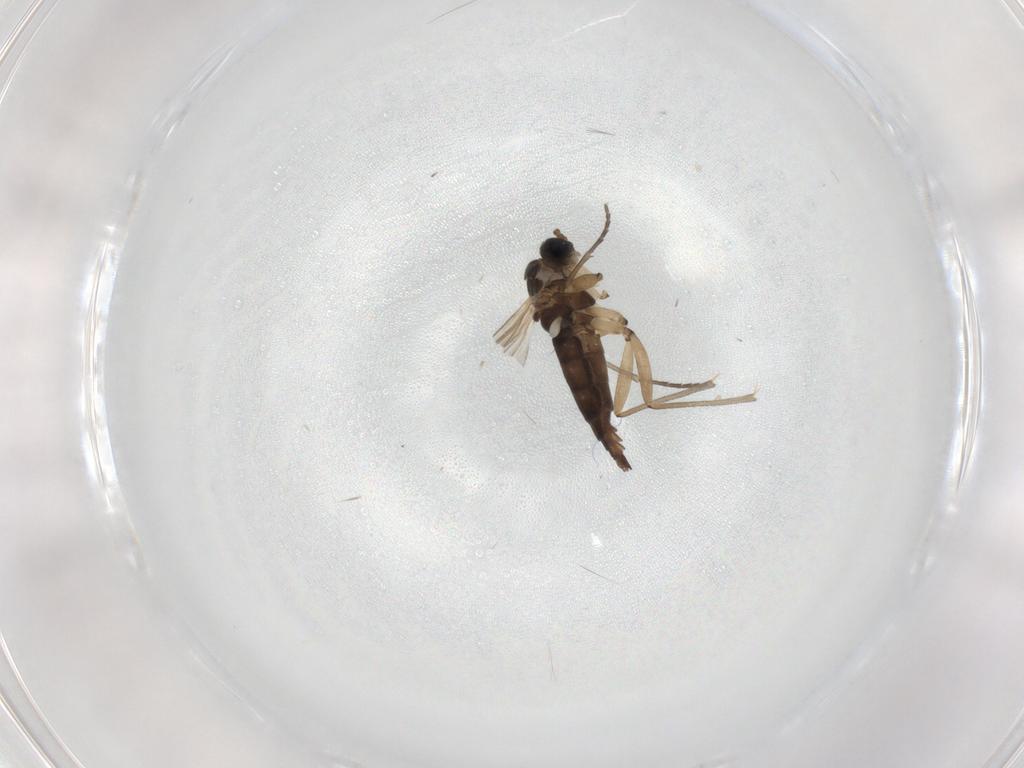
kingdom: Animalia
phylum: Arthropoda
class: Insecta
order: Diptera
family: Sciaridae
